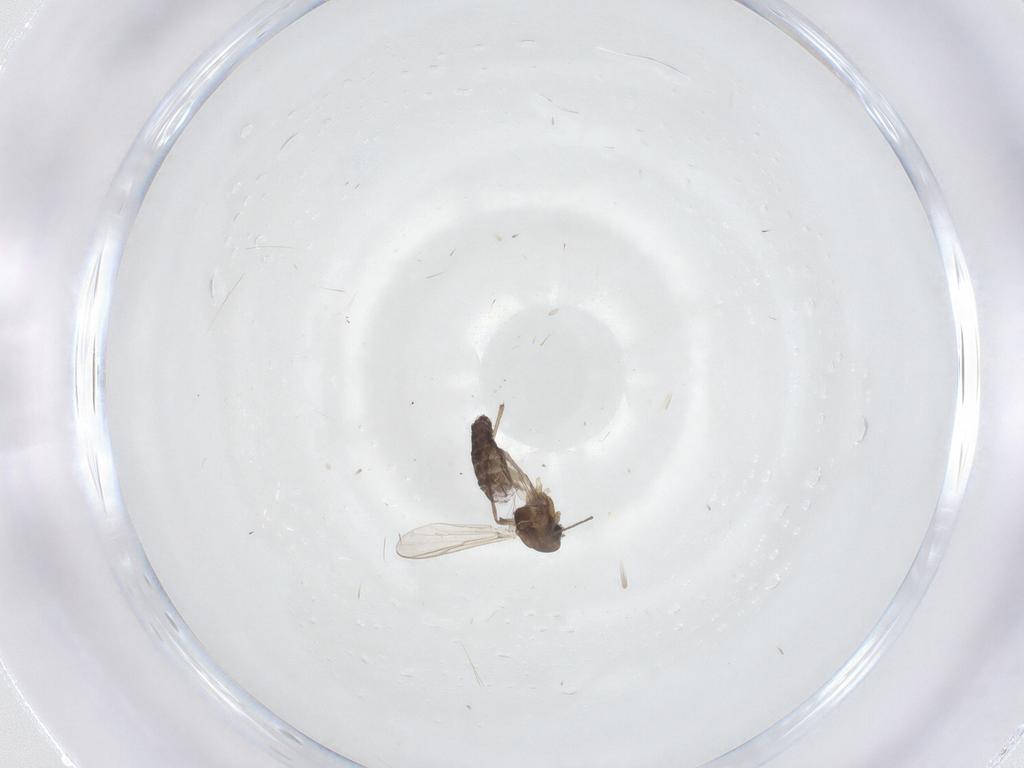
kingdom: Animalia
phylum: Arthropoda
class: Insecta
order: Diptera
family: Chironomidae
